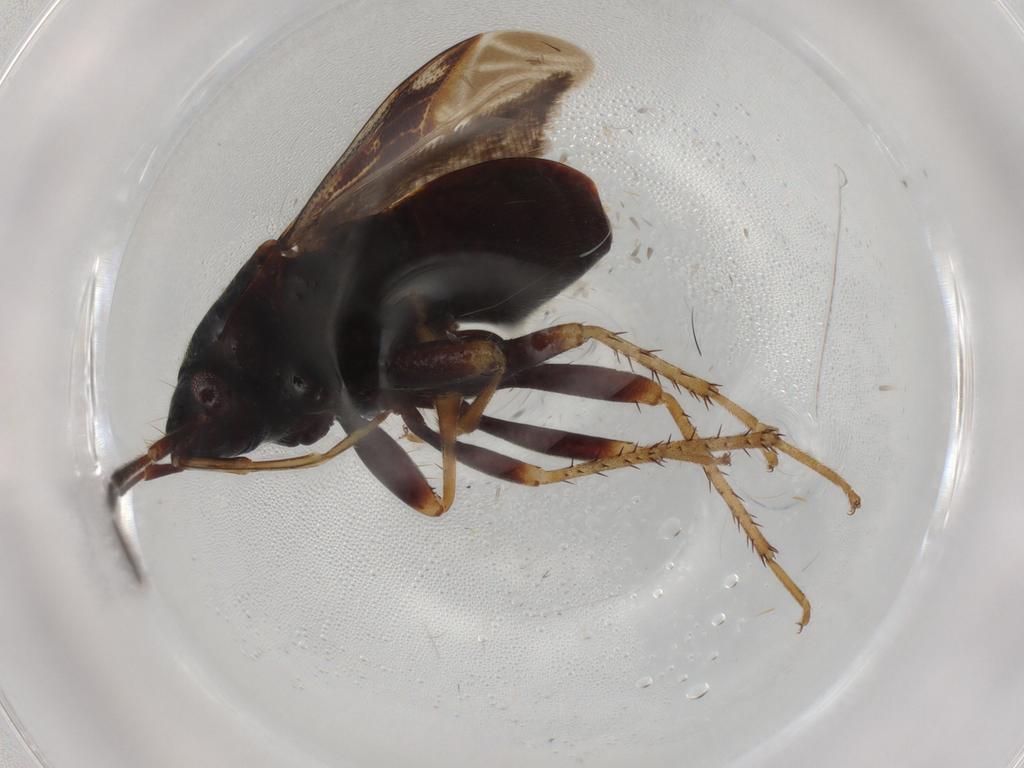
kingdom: Animalia
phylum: Arthropoda
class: Insecta
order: Hemiptera
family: Rhyparochromidae
